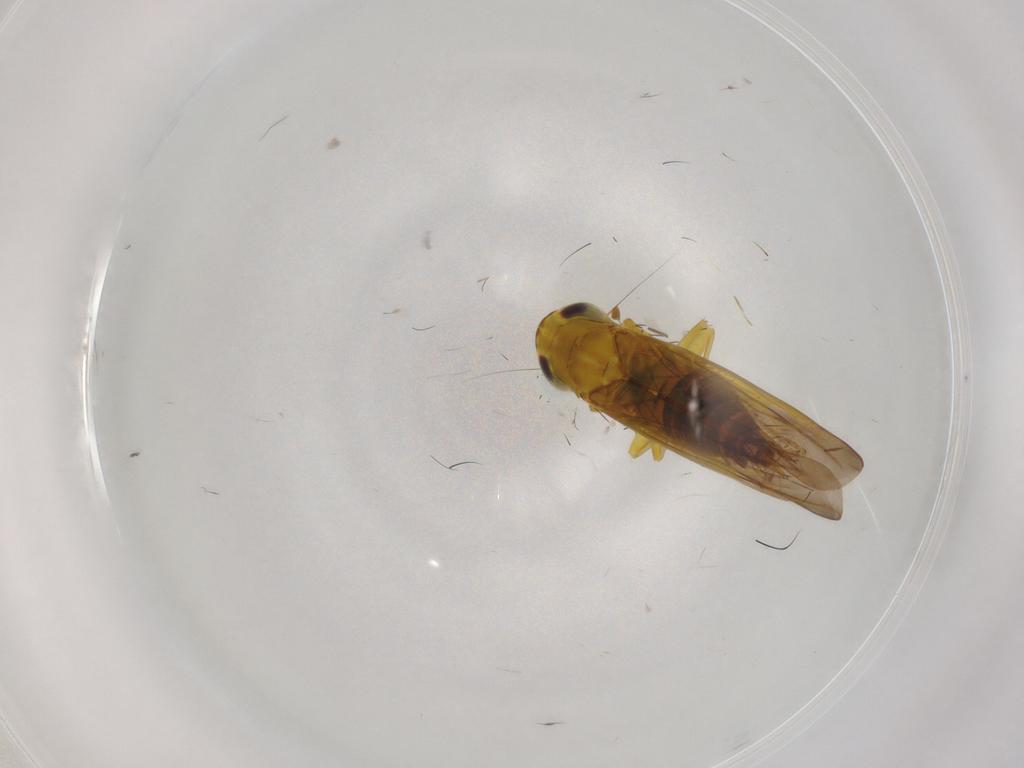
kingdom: Animalia
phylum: Arthropoda
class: Insecta
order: Hemiptera
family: Cicadellidae
